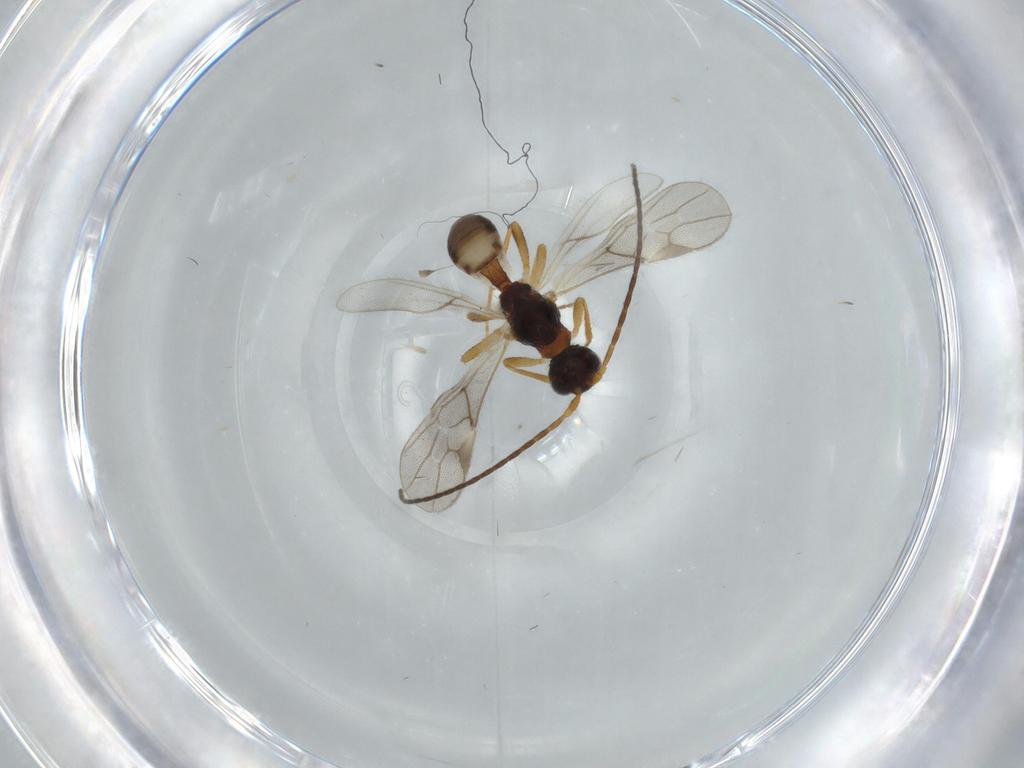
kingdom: Animalia
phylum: Arthropoda
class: Insecta
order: Hymenoptera
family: Braconidae
